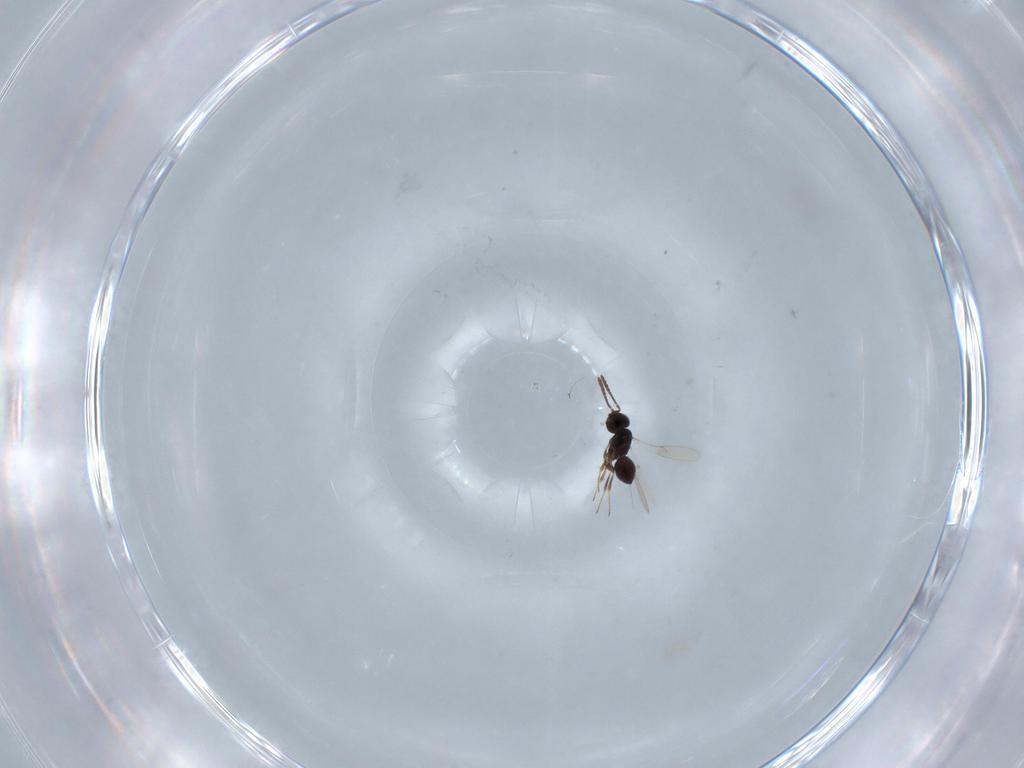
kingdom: Animalia
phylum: Arthropoda
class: Insecta
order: Hymenoptera
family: Scelionidae
